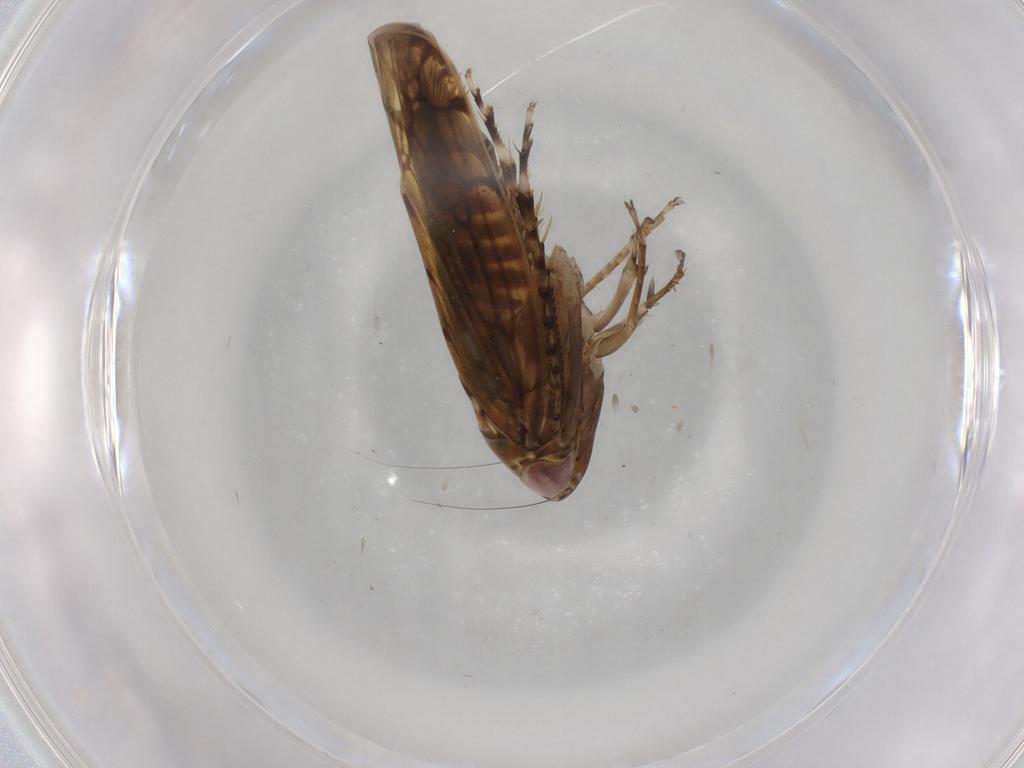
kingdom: Animalia
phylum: Arthropoda
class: Insecta
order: Hemiptera
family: Cicadellidae
